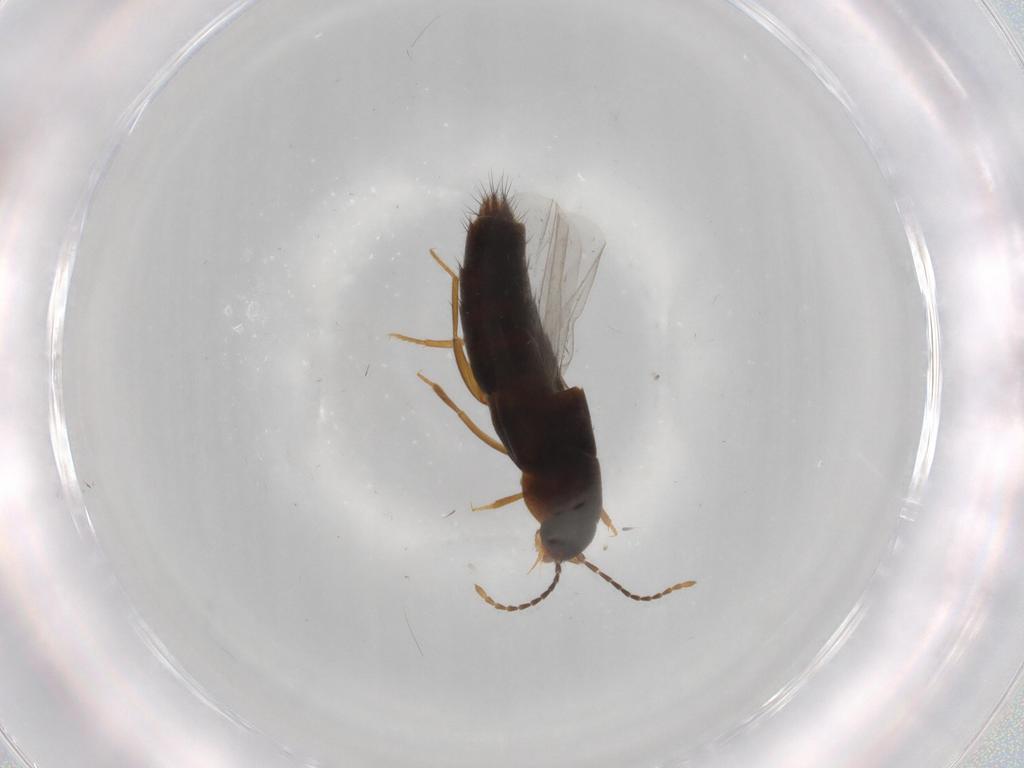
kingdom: Animalia
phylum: Arthropoda
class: Insecta
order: Coleoptera
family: Staphylinidae
